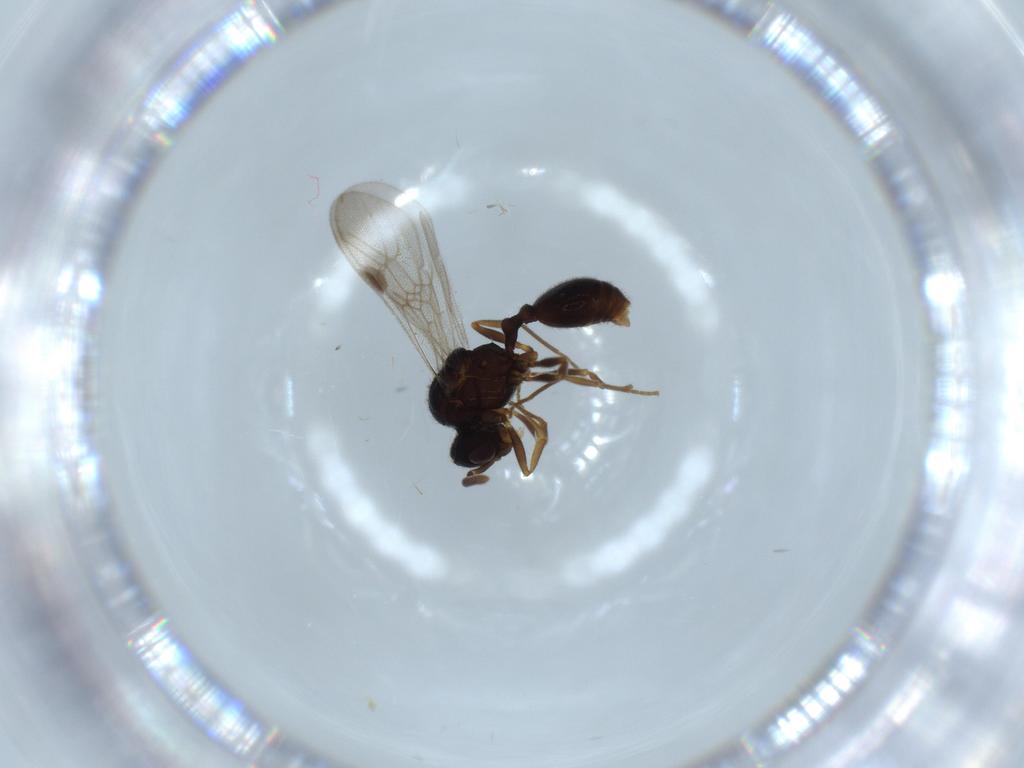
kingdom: Animalia
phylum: Arthropoda
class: Insecta
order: Hymenoptera
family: Formicidae
